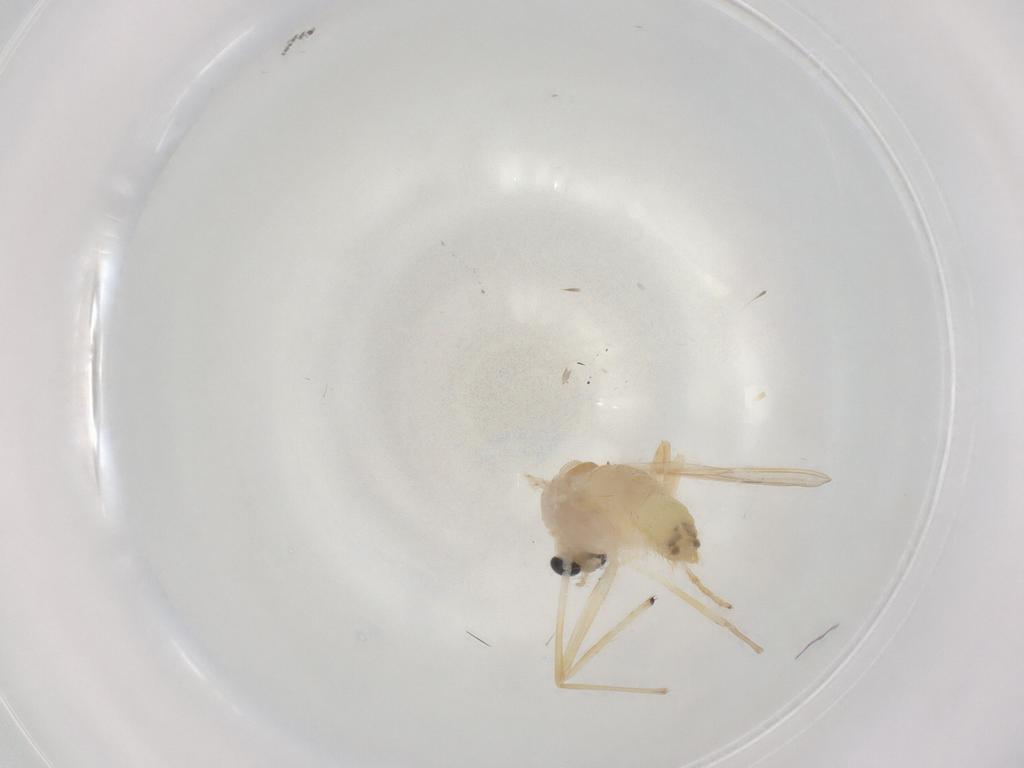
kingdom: Animalia
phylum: Arthropoda
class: Insecta
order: Diptera
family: Chironomidae
